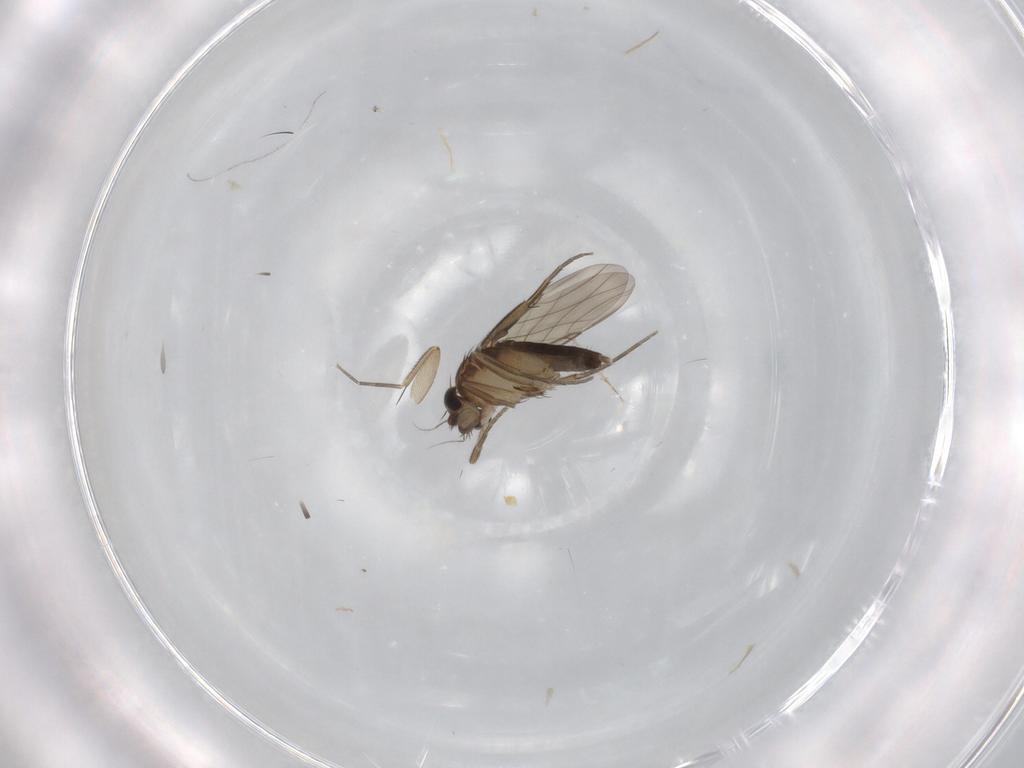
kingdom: Animalia
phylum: Arthropoda
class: Insecta
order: Diptera
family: Phoridae
